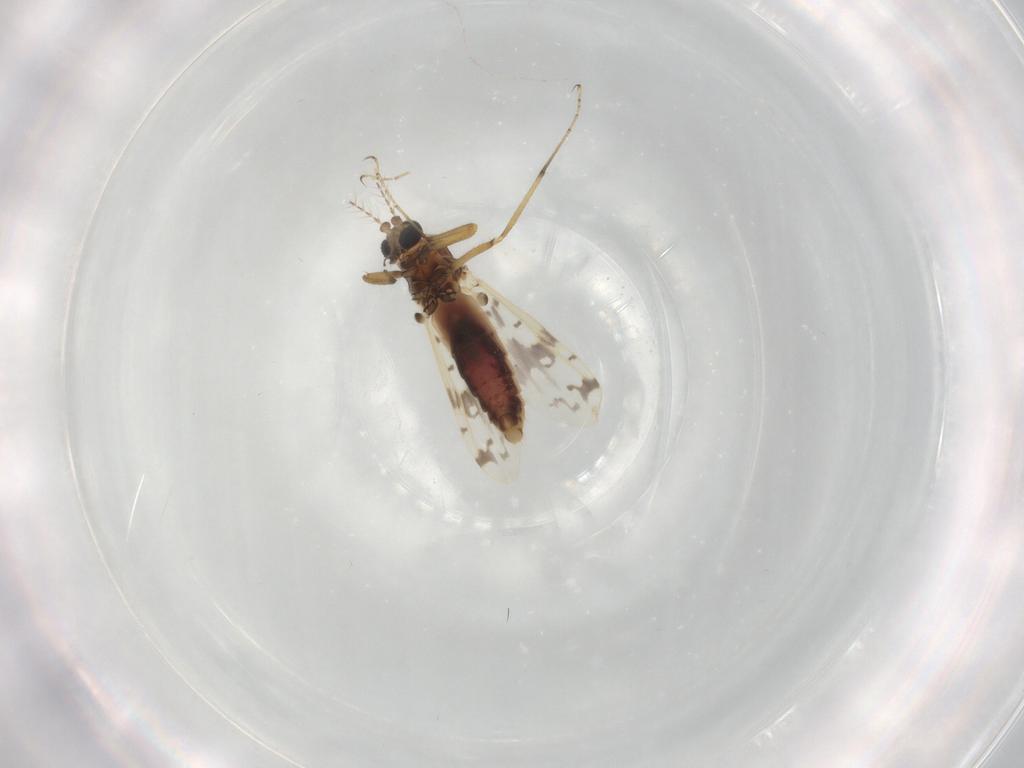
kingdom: Animalia
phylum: Arthropoda
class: Insecta
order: Diptera
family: Ceratopogonidae
